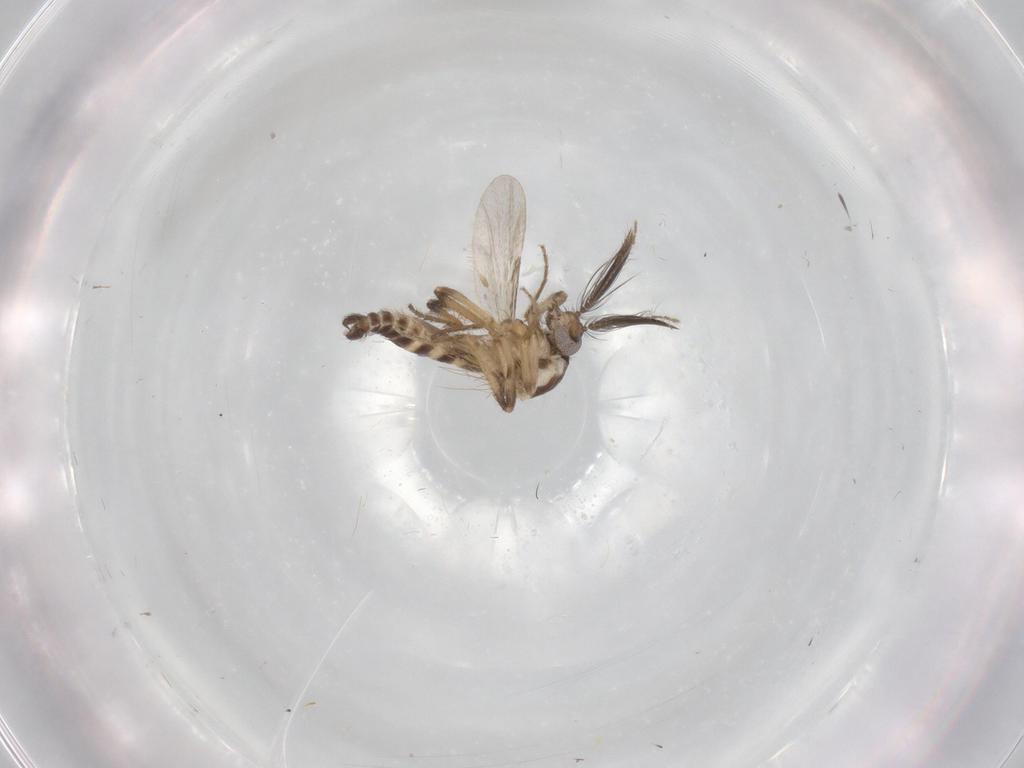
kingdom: Animalia
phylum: Arthropoda
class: Insecta
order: Diptera
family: Ceratopogonidae
